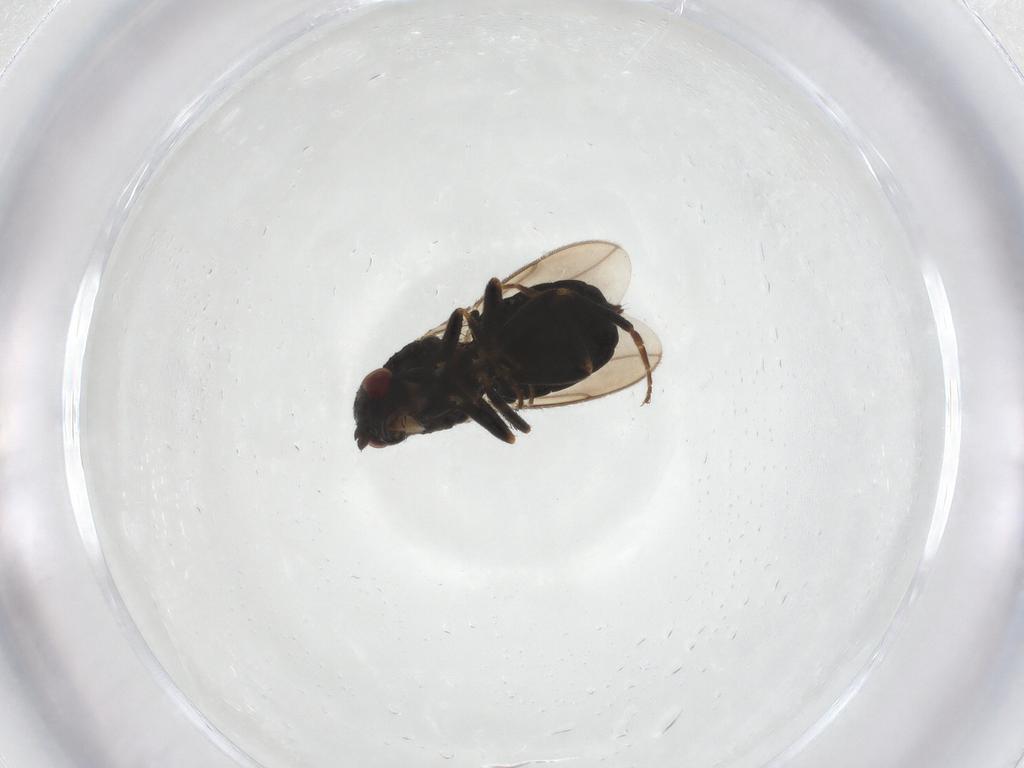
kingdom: Animalia
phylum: Arthropoda
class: Insecta
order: Diptera
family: Sphaeroceridae
